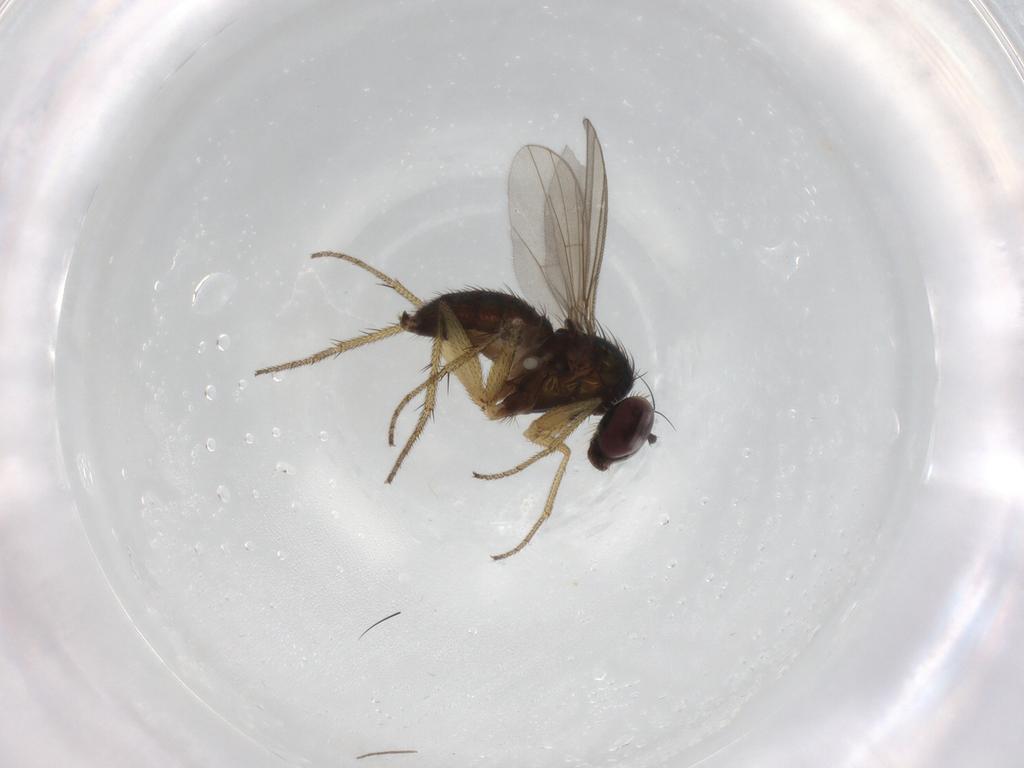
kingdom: Animalia
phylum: Arthropoda
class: Insecta
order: Diptera
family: Dolichopodidae
